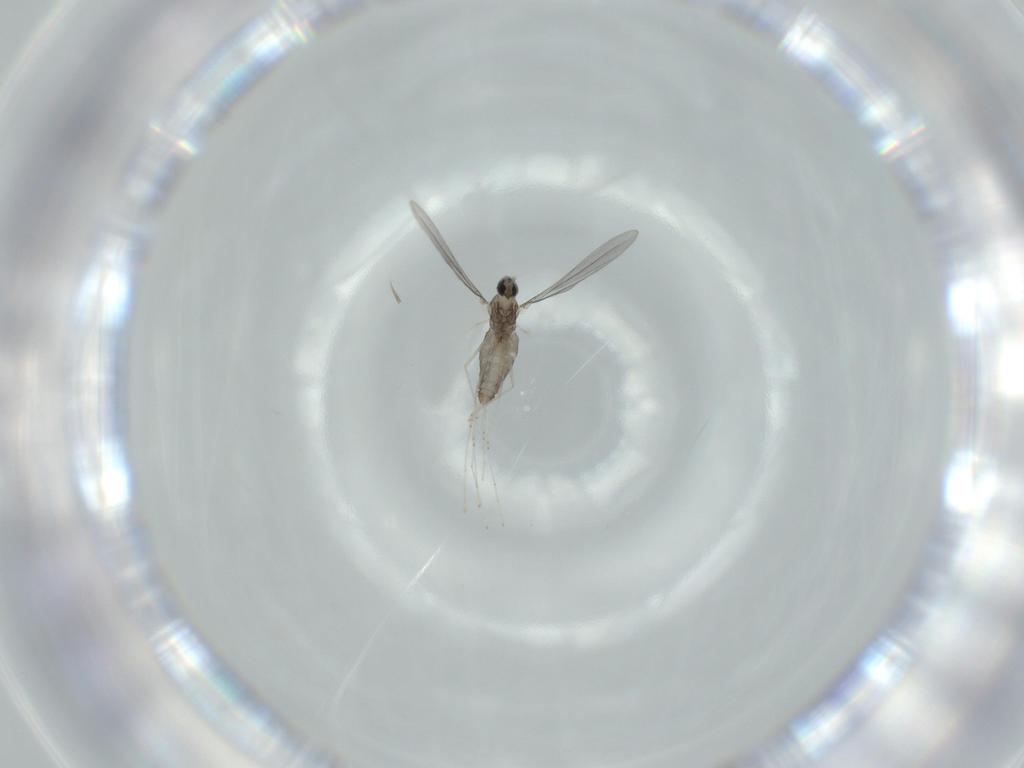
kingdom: Animalia
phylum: Arthropoda
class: Insecta
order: Diptera
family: Cecidomyiidae
